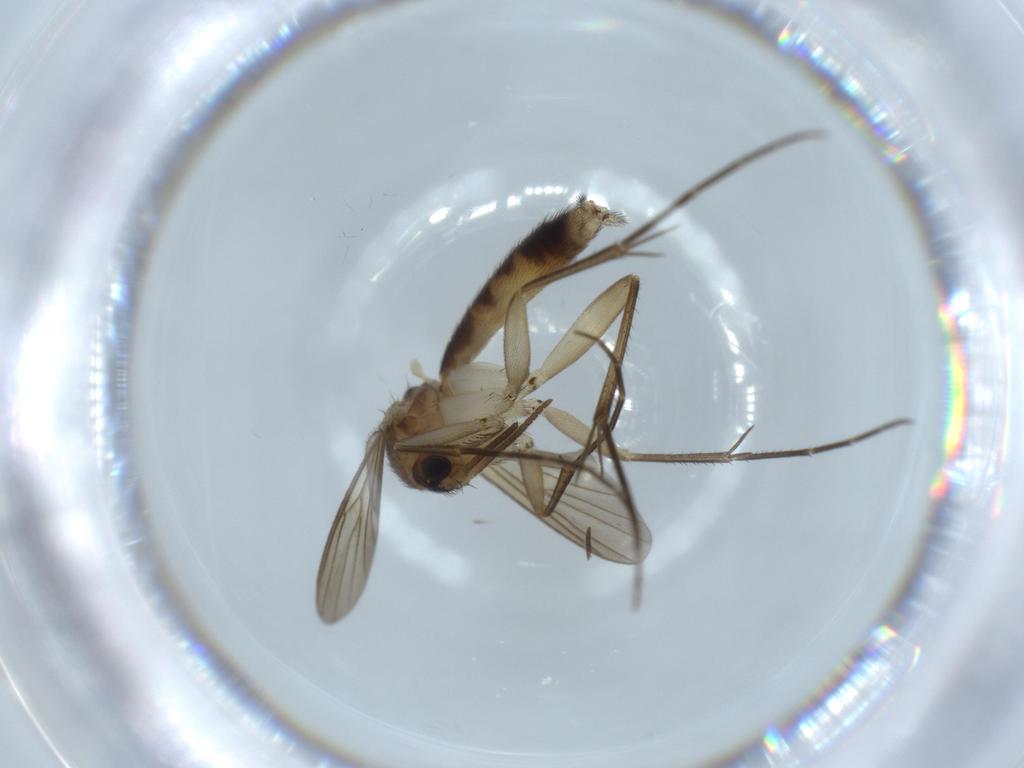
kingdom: Animalia
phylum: Arthropoda
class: Insecta
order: Diptera
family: Mycetophilidae
